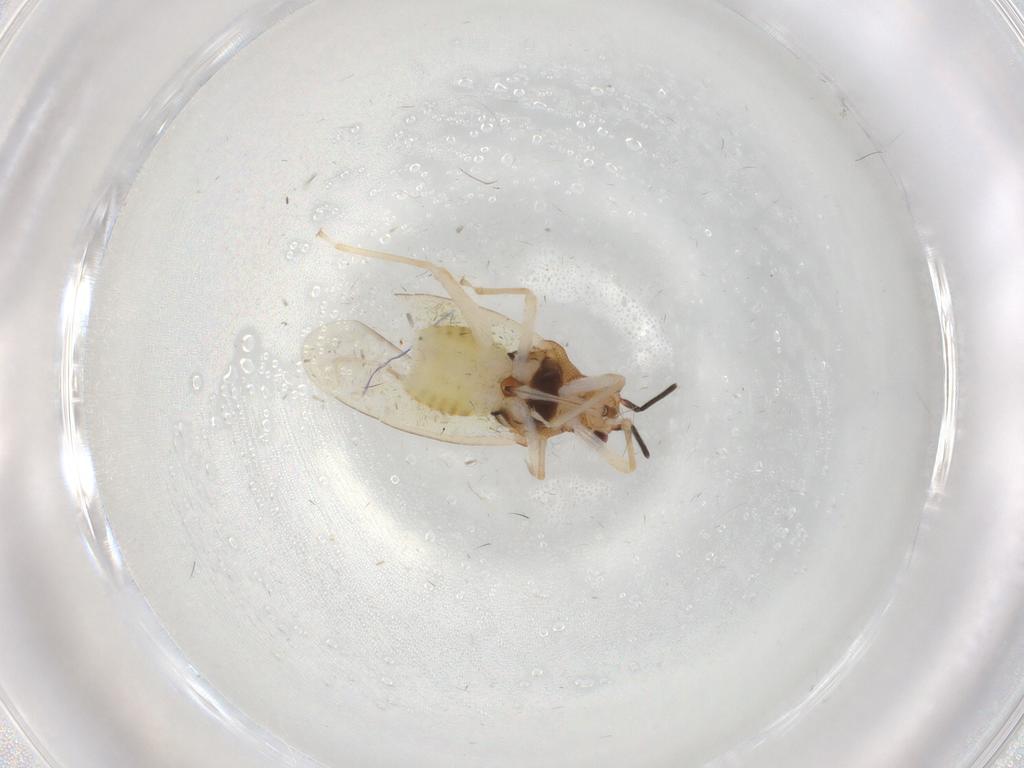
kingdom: Animalia
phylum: Arthropoda
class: Insecta
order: Hemiptera
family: Miridae
